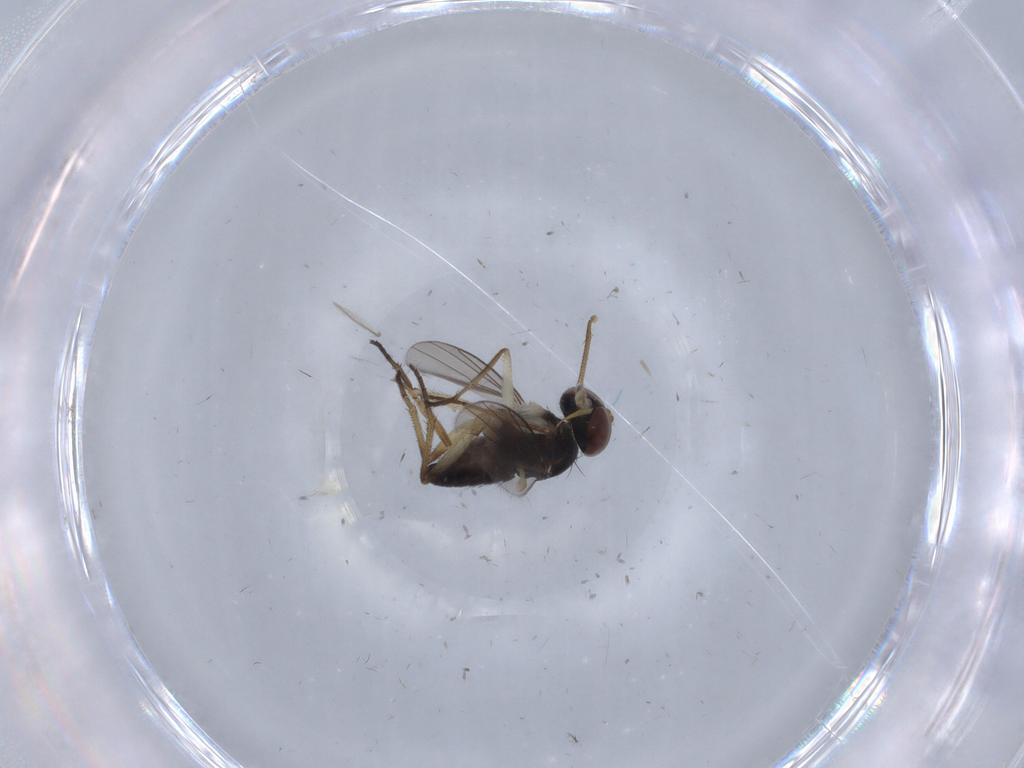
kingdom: Animalia
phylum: Arthropoda
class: Insecta
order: Diptera
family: Dolichopodidae
